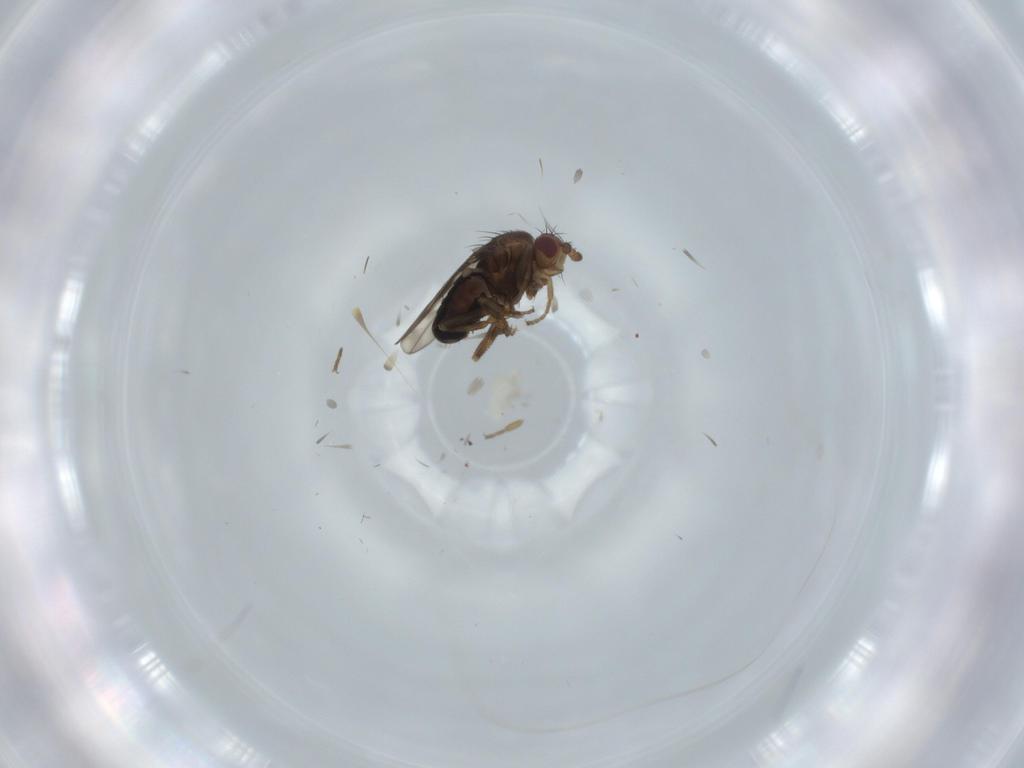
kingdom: Animalia
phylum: Arthropoda
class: Insecta
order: Diptera
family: Sphaeroceridae
